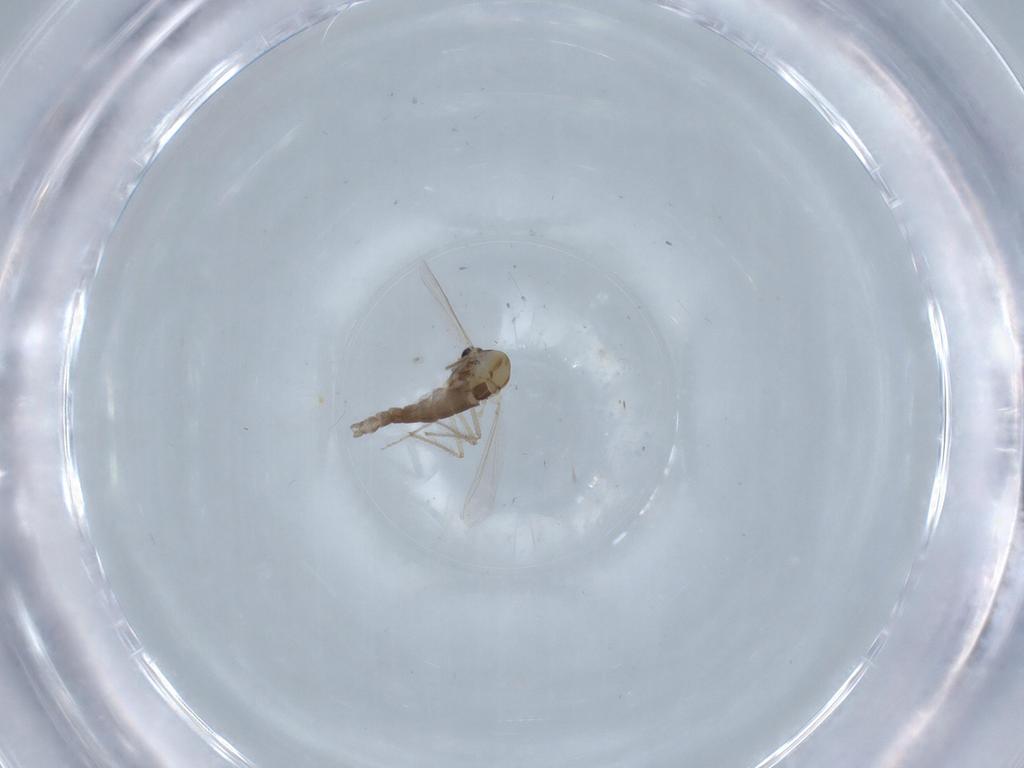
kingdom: Animalia
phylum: Arthropoda
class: Insecta
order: Diptera
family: Chironomidae
